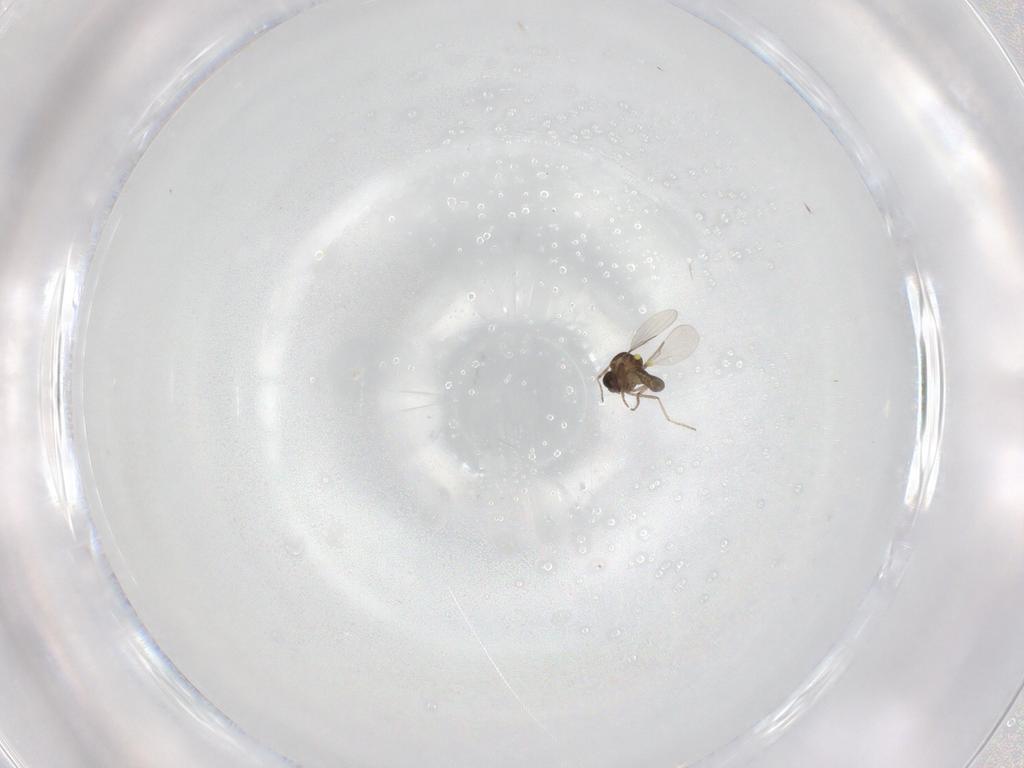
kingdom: Animalia
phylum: Arthropoda
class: Insecta
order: Diptera
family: Ceratopogonidae
